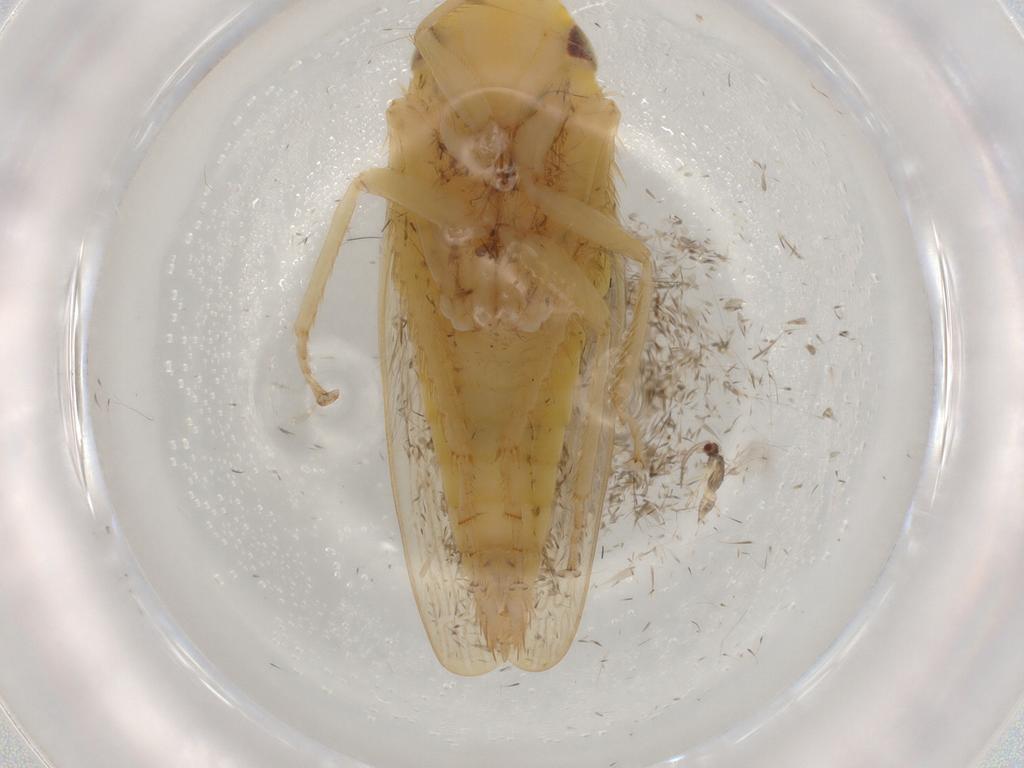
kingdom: Animalia
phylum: Arthropoda
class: Insecta
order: Hemiptera
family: Cicadellidae
